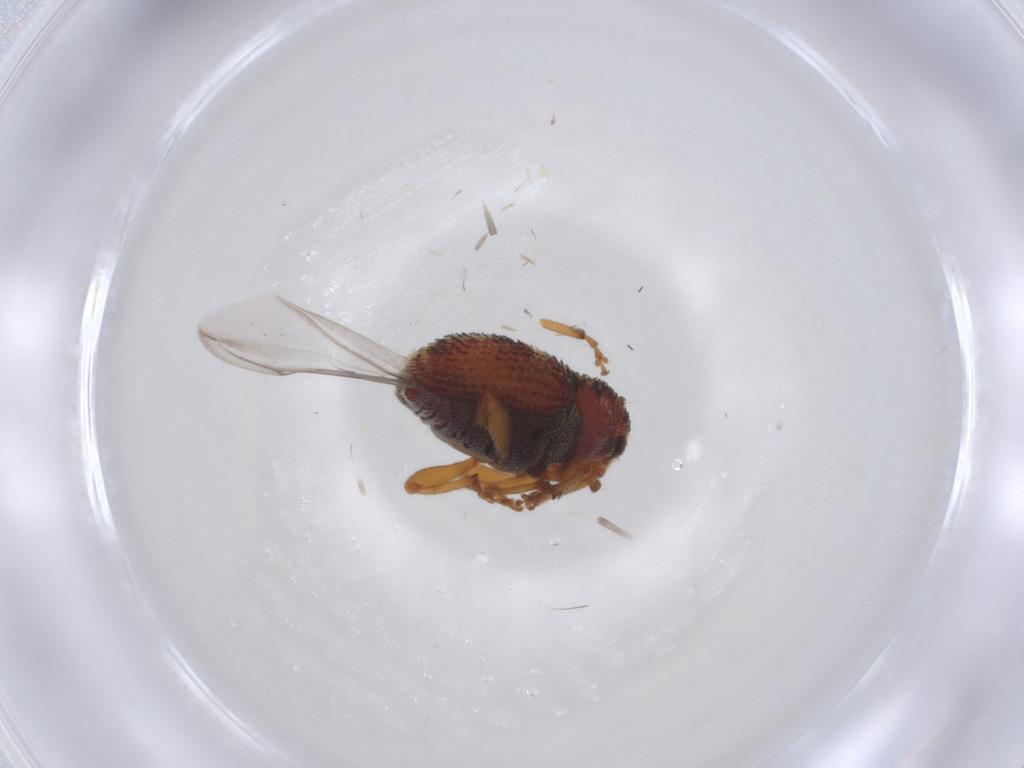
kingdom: Animalia
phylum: Arthropoda
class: Insecta
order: Coleoptera
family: Curculionidae
